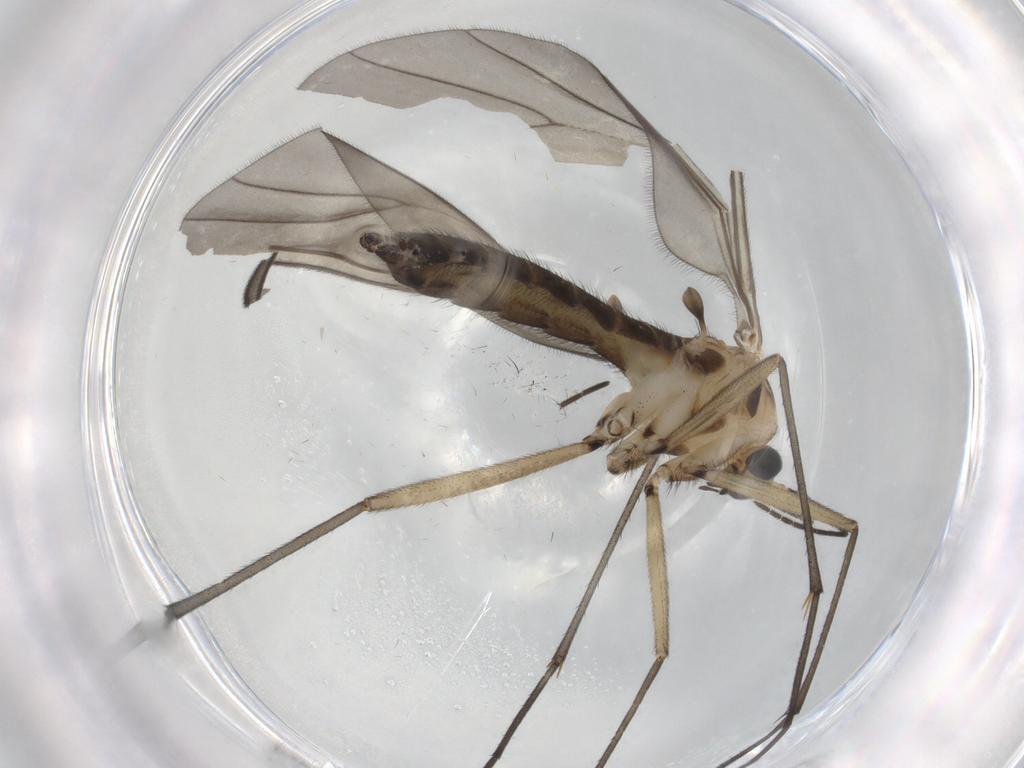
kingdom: Animalia
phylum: Arthropoda
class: Insecta
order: Diptera
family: Sciaridae
